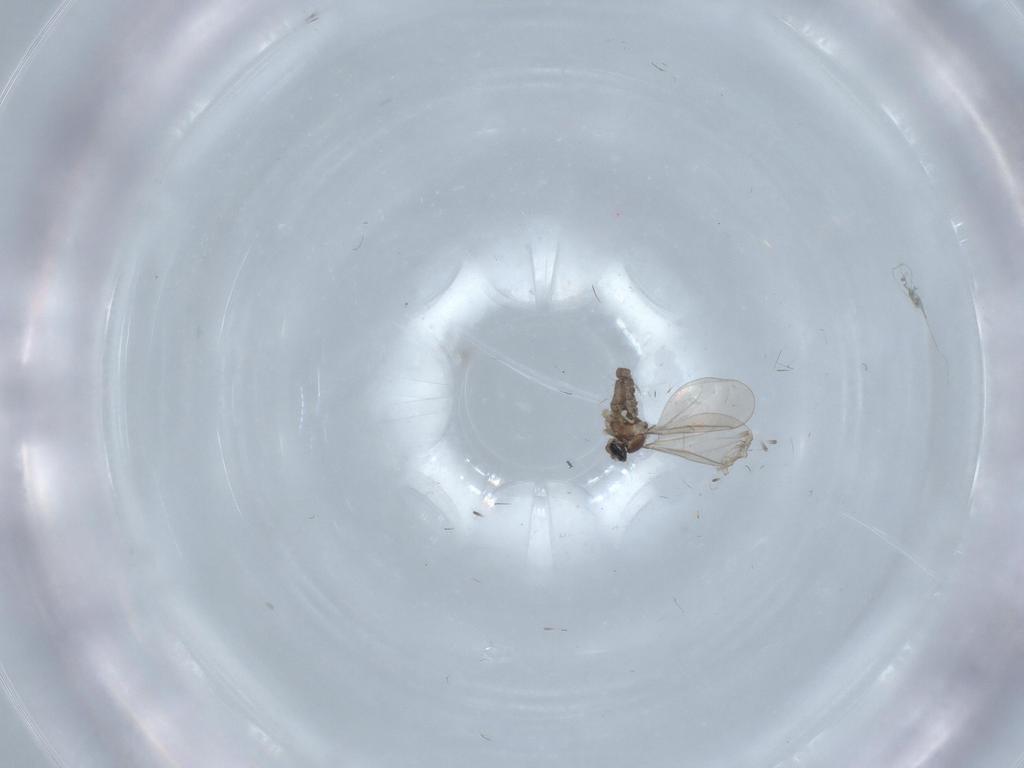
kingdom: Animalia
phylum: Arthropoda
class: Insecta
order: Diptera
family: Cecidomyiidae
